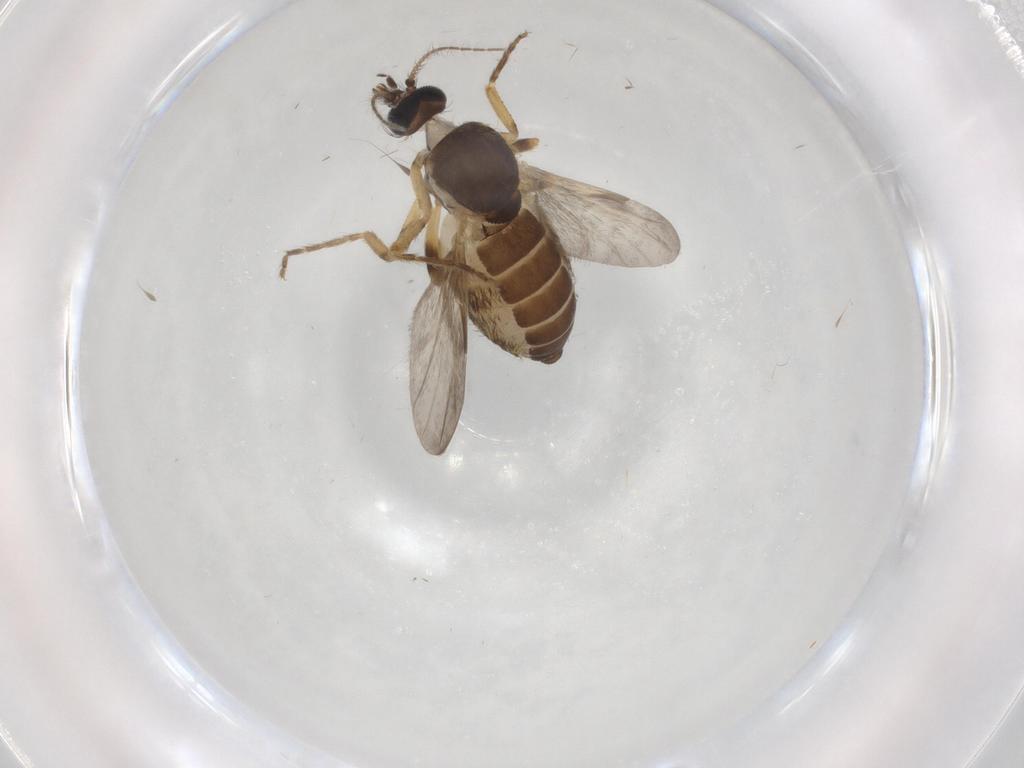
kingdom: Animalia
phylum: Arthropoda
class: Insecta
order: Diptera
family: Ceratopogonidae
